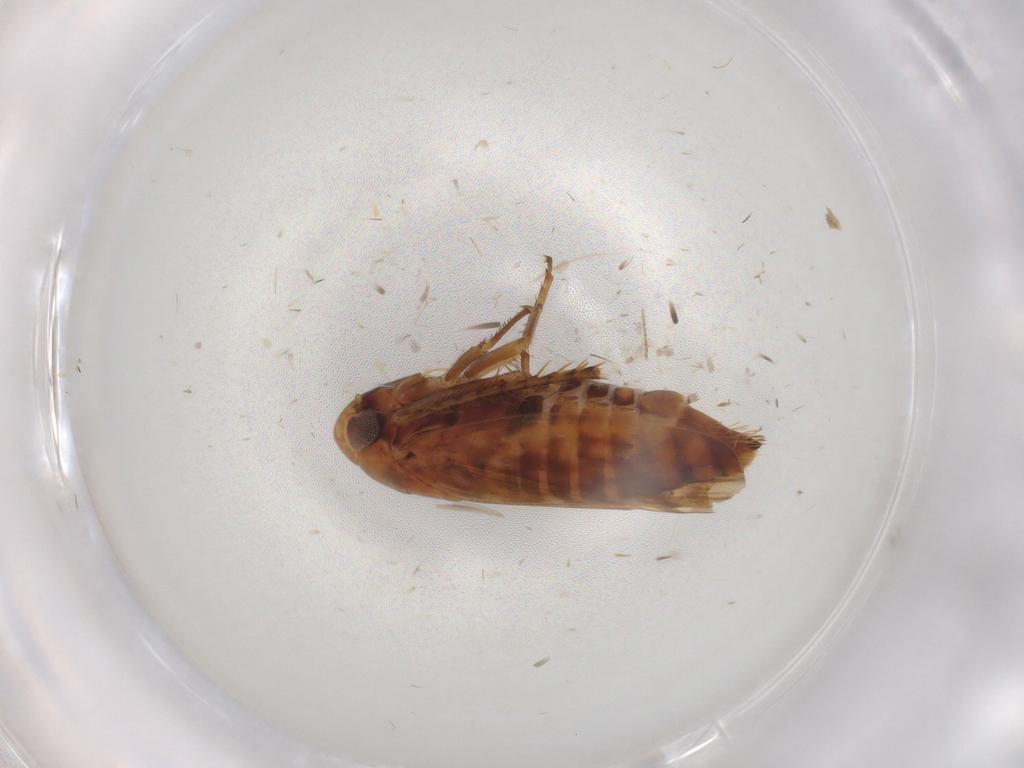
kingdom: Animalia
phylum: Arthropoda
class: Insecta
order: Hemiptera
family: Cicadellidae
